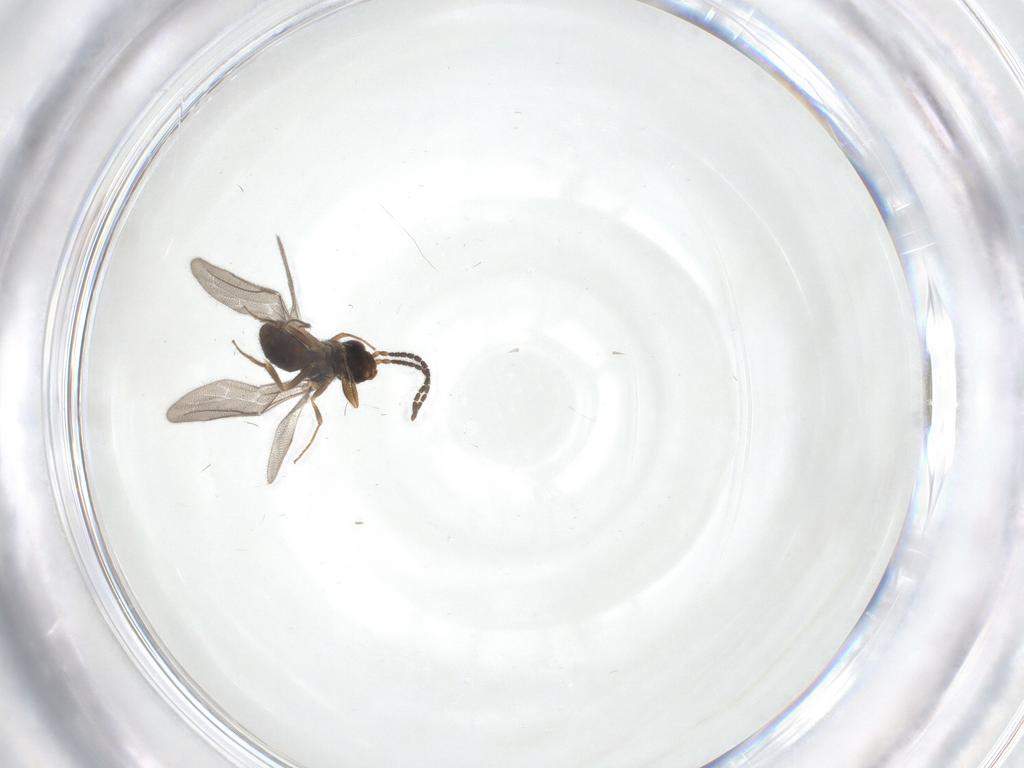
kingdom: Animalia
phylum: Arthropoda
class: Insecta
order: Hymenoptera
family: Bethylidae
